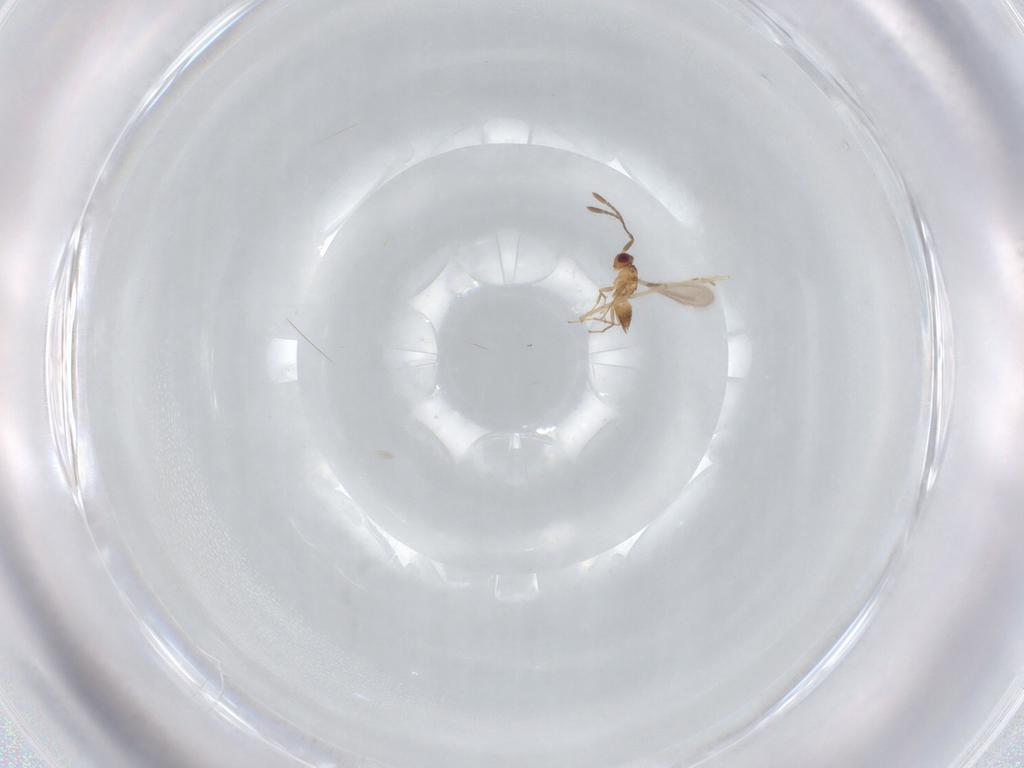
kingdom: Animalia
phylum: Arthropoda
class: Insecta
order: Hymenoptera
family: Mymaridae
